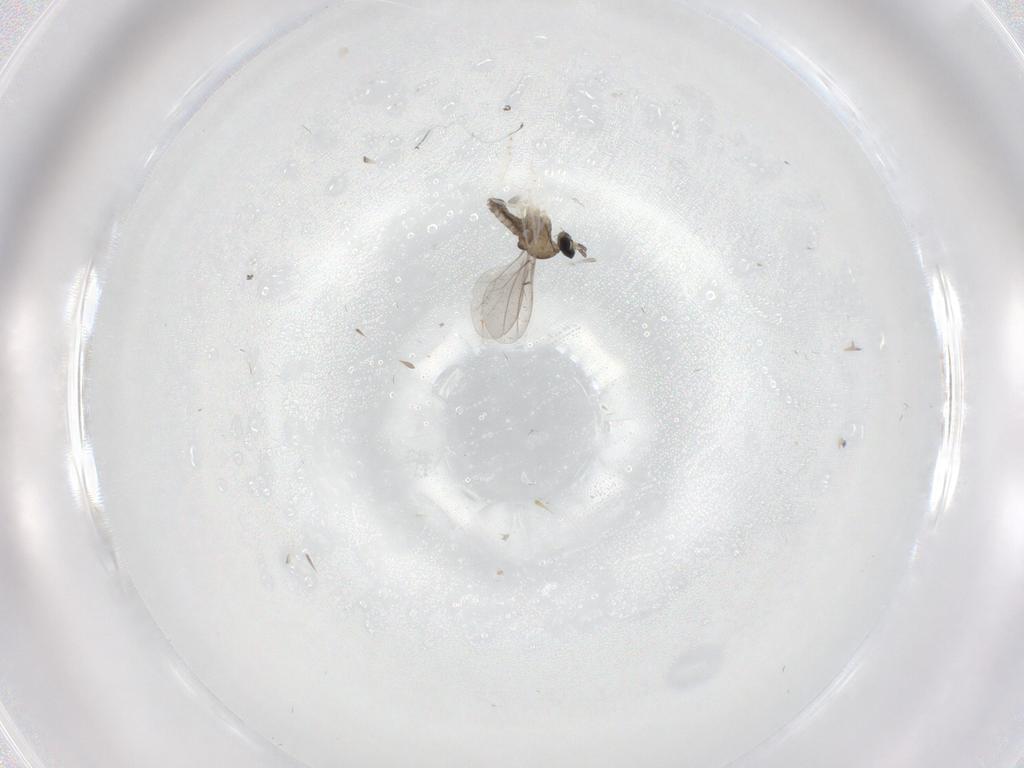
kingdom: Animalia
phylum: Arthropoda
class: Insecta
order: Diptera
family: Cecidomyiidae
